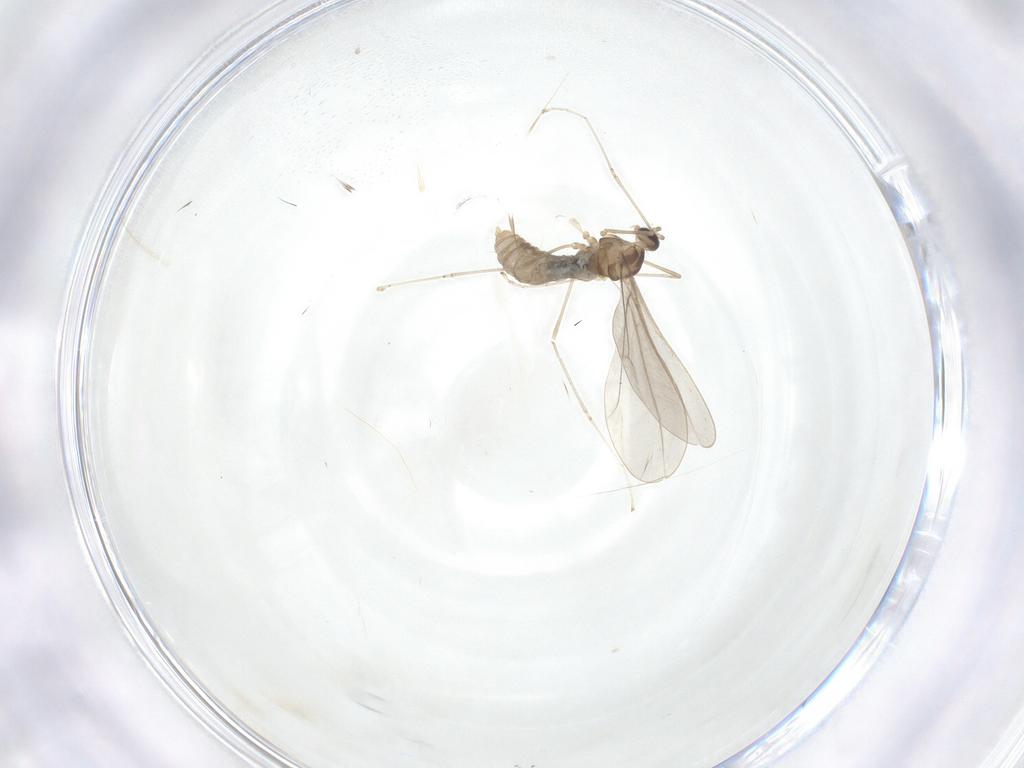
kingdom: Animalia
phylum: Arthropoda
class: Insecta
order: Diptera
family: Cecidomyiidae
